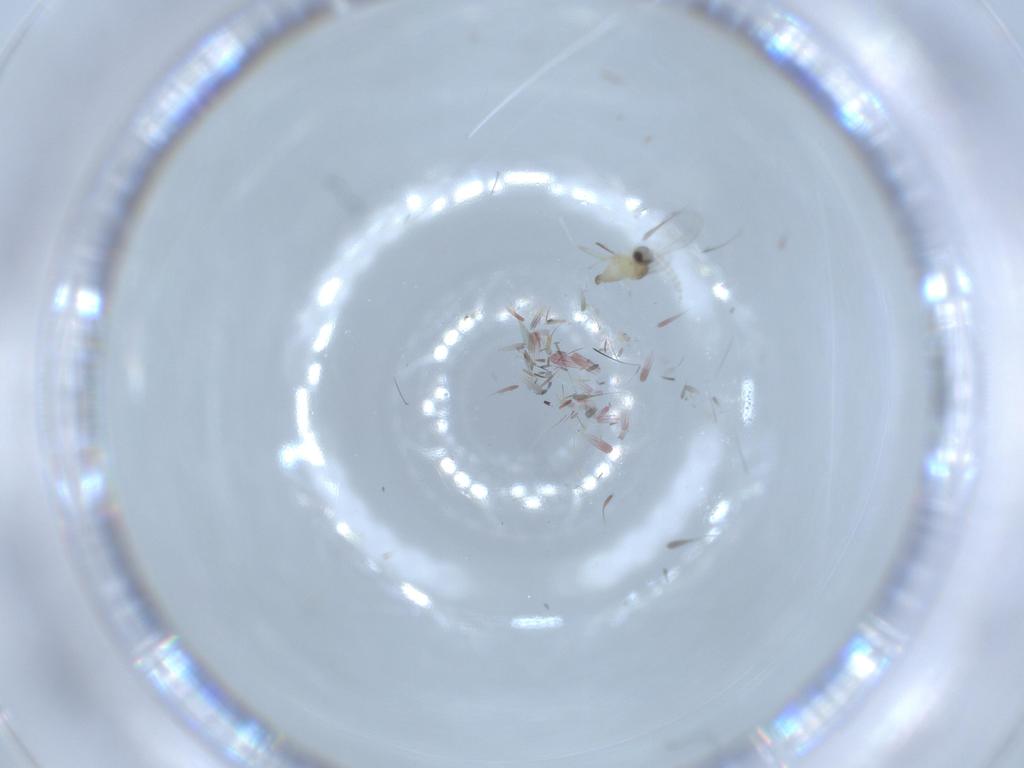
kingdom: Animalia
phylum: Arthropoda
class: Insecta
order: Diptera
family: Cecidomyiidae
